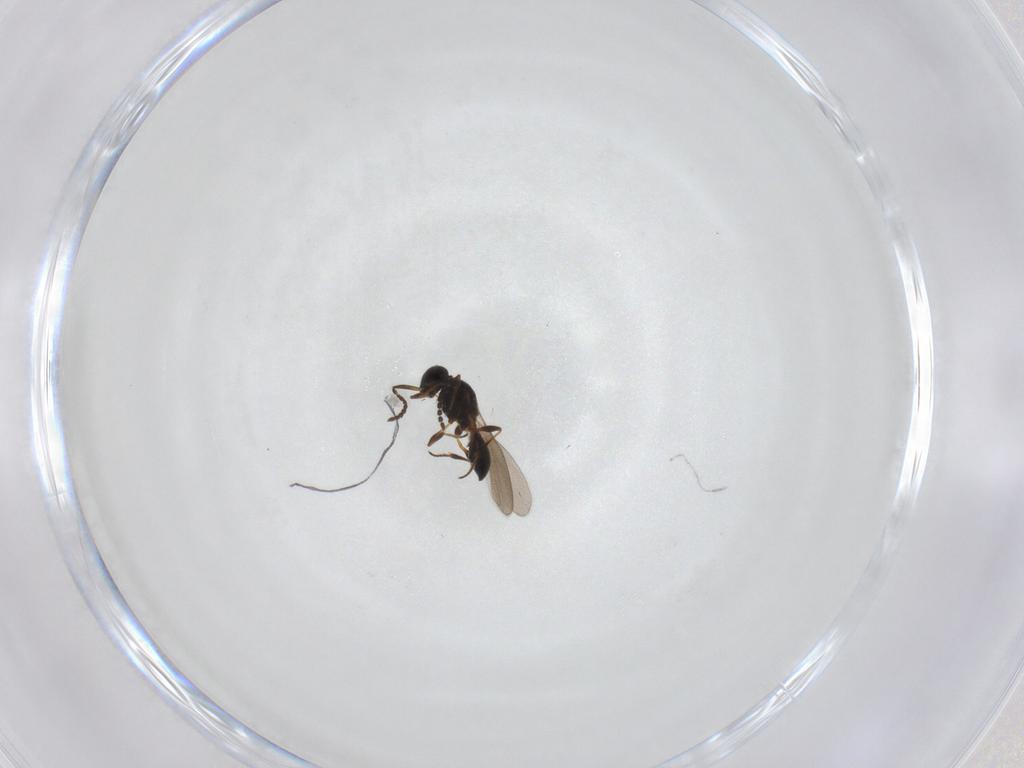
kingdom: Animalia
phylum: Arthropoda
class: Insecta
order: Hymenoptera
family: Platygastridae
